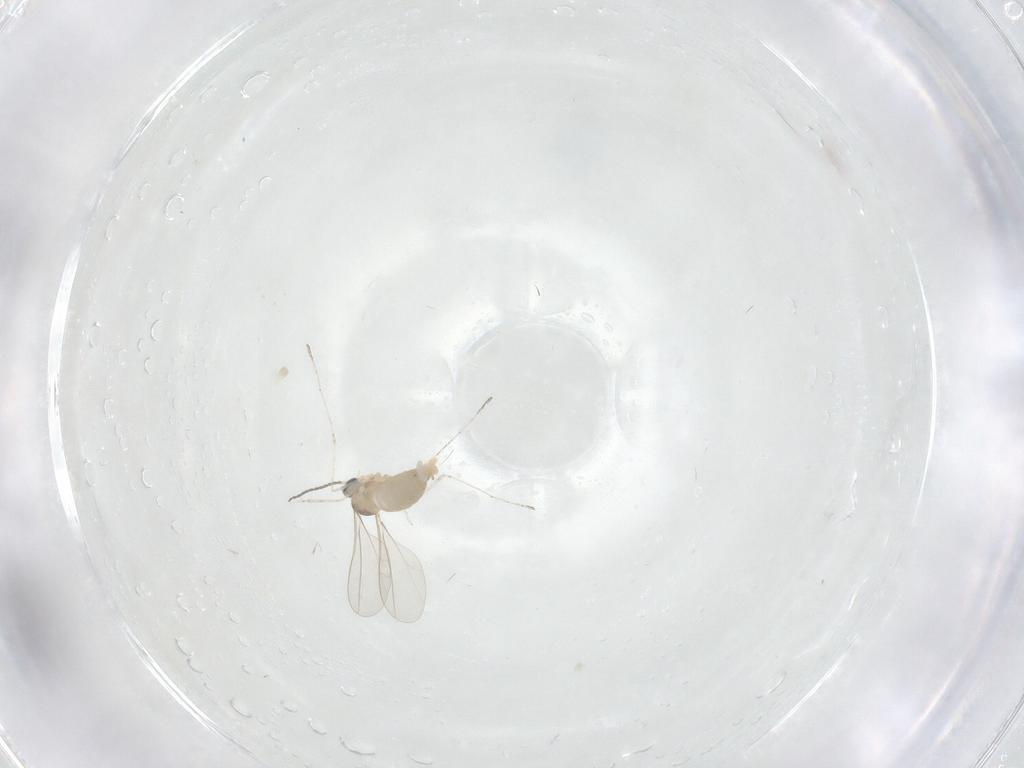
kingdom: Animalia
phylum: Arthropoda
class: Insecta
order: Diptera
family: Cecidomyiidae
